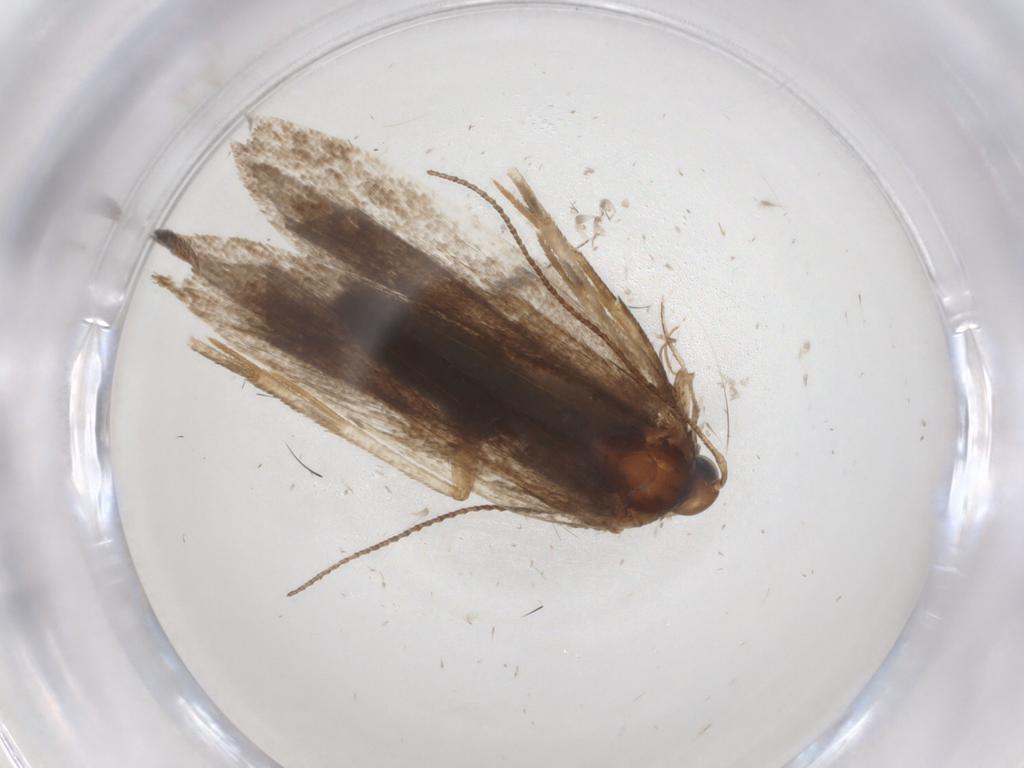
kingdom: Animalia
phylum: Arthropoda
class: Insecta
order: Lepidoptera
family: Gelechiidae
